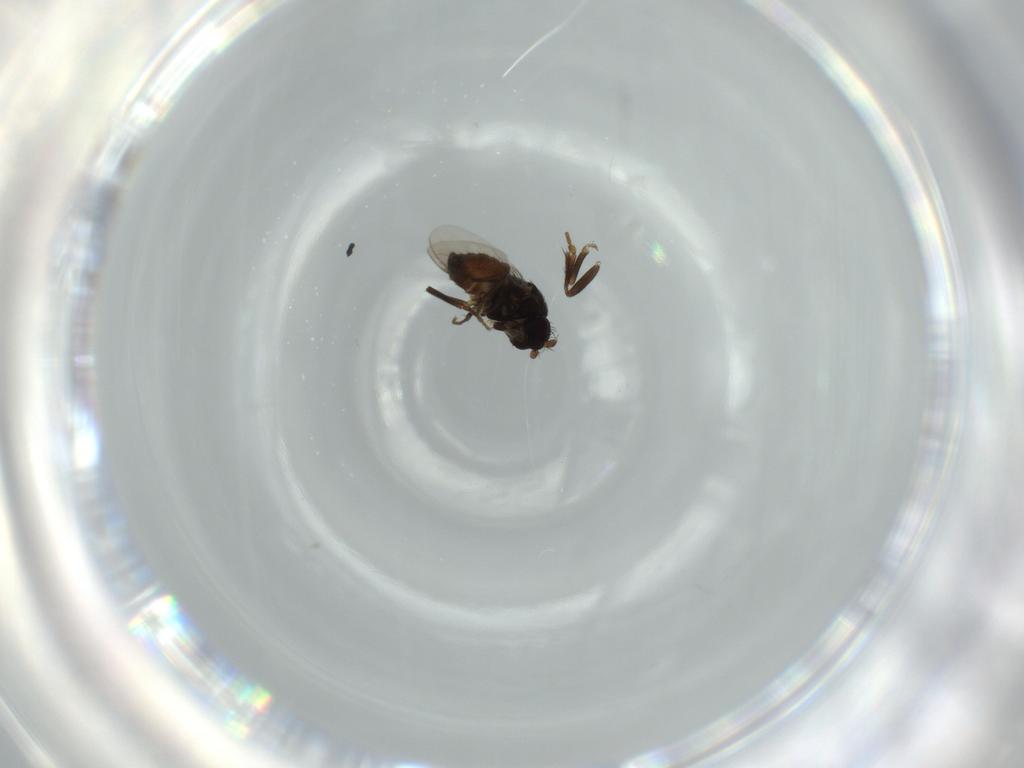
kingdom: Animalia
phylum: Arthropoda
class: Insecta
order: Diptera
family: Sphaeroceridae
